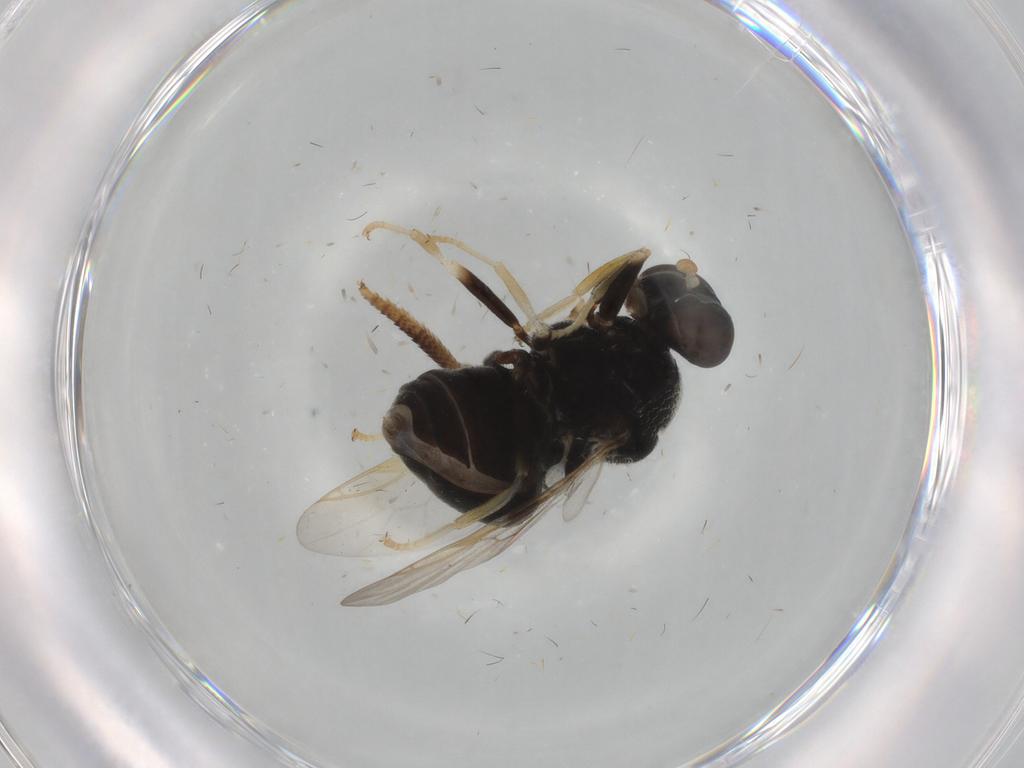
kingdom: Animalia
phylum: Arthropoda
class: Insecta
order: Diptera
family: Stratiomyidae
